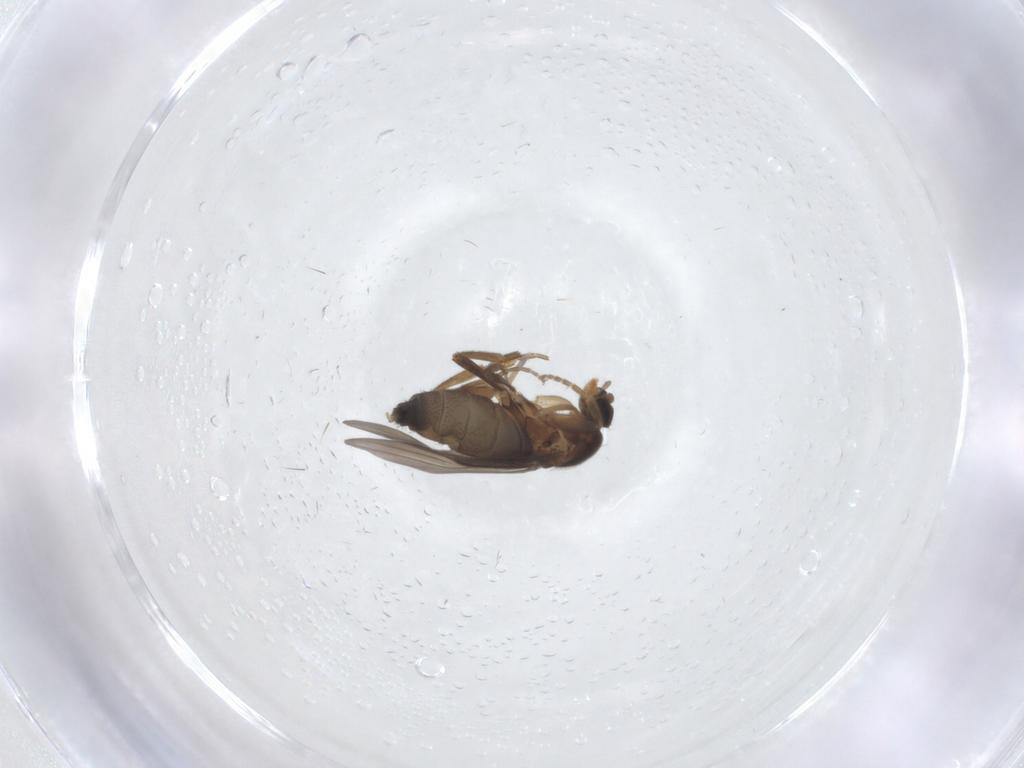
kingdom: Animalia
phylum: Arthropoda
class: Insecta
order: Diptera
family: Phoridae
